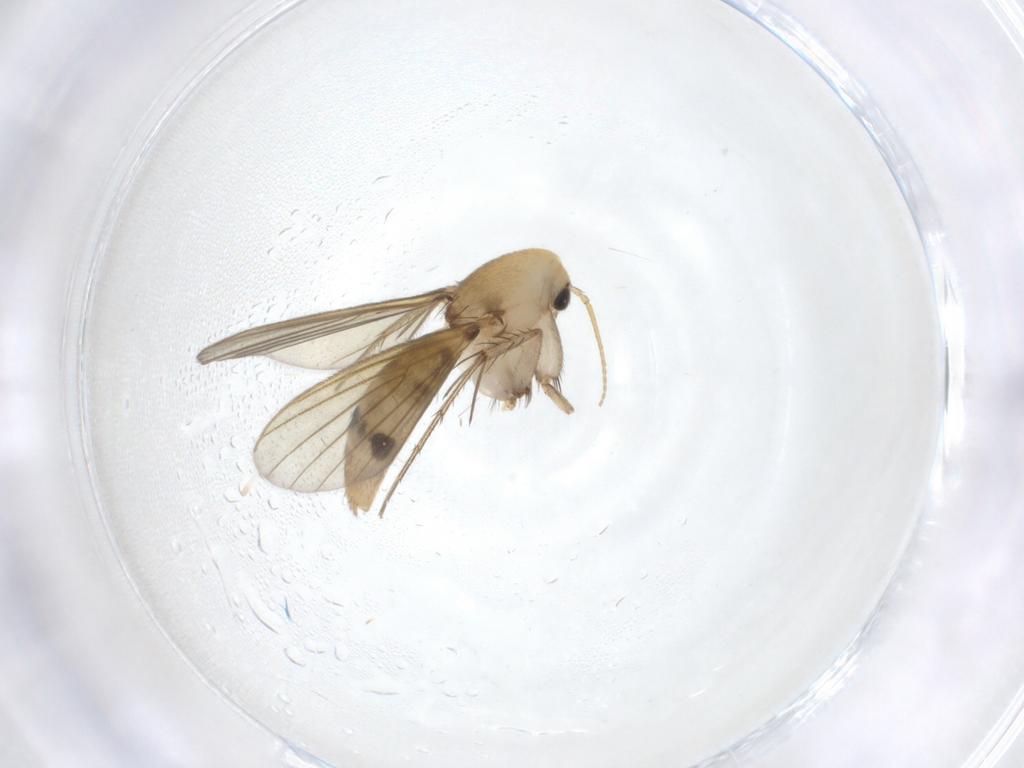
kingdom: Animalia
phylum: Arthropoda
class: Insecta
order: Diptera
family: Mycetophilidae
